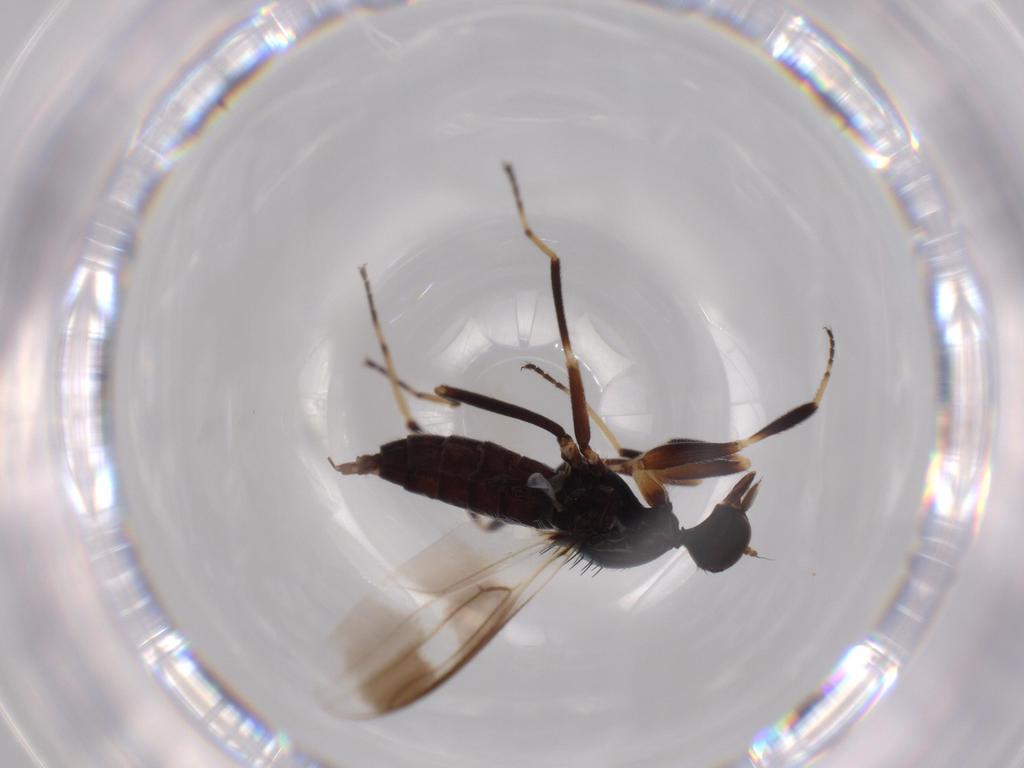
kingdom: Animalia
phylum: Arthropoda
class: Insecta
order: Diptera
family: Hybotidae
